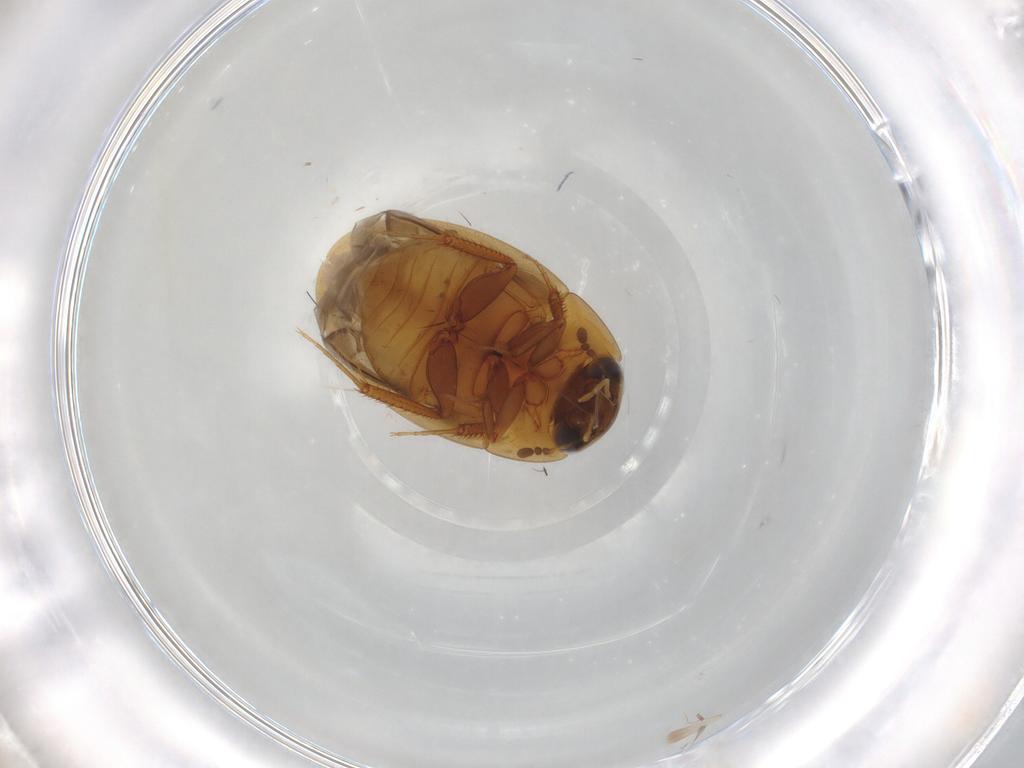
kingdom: Animalia
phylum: Arthropoda
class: Insecta
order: Coleoptera
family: Hydrophilidae
